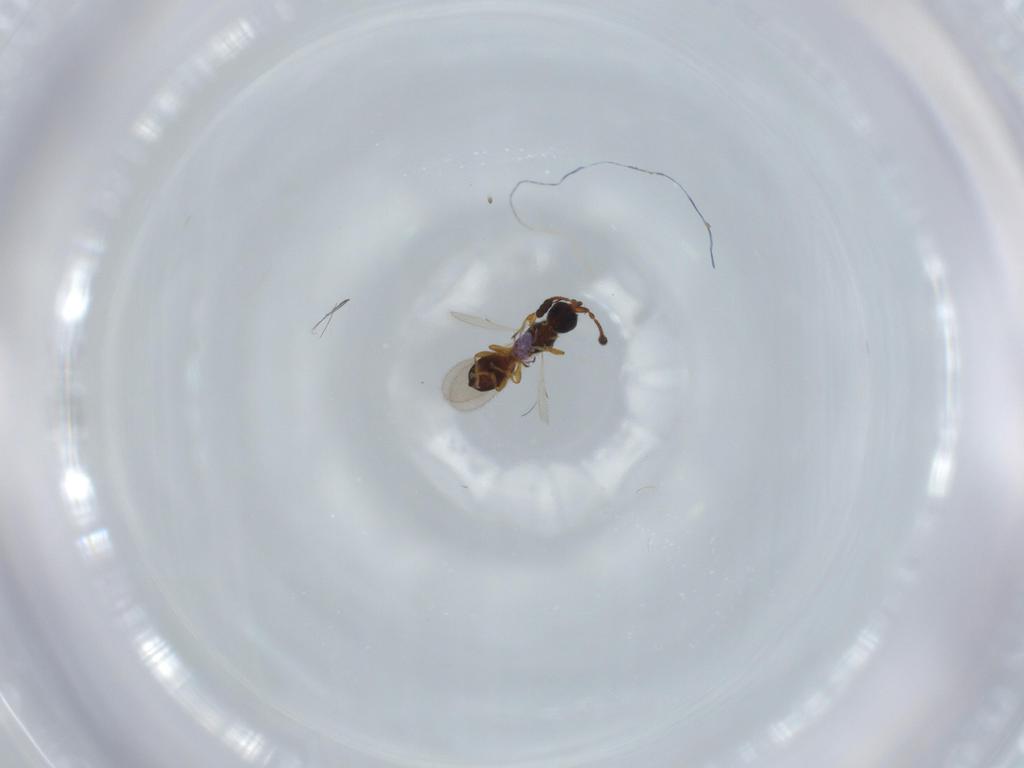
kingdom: Animalia
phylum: Arthropoda
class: Insecta
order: Hymenoptera
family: Diapriidae
